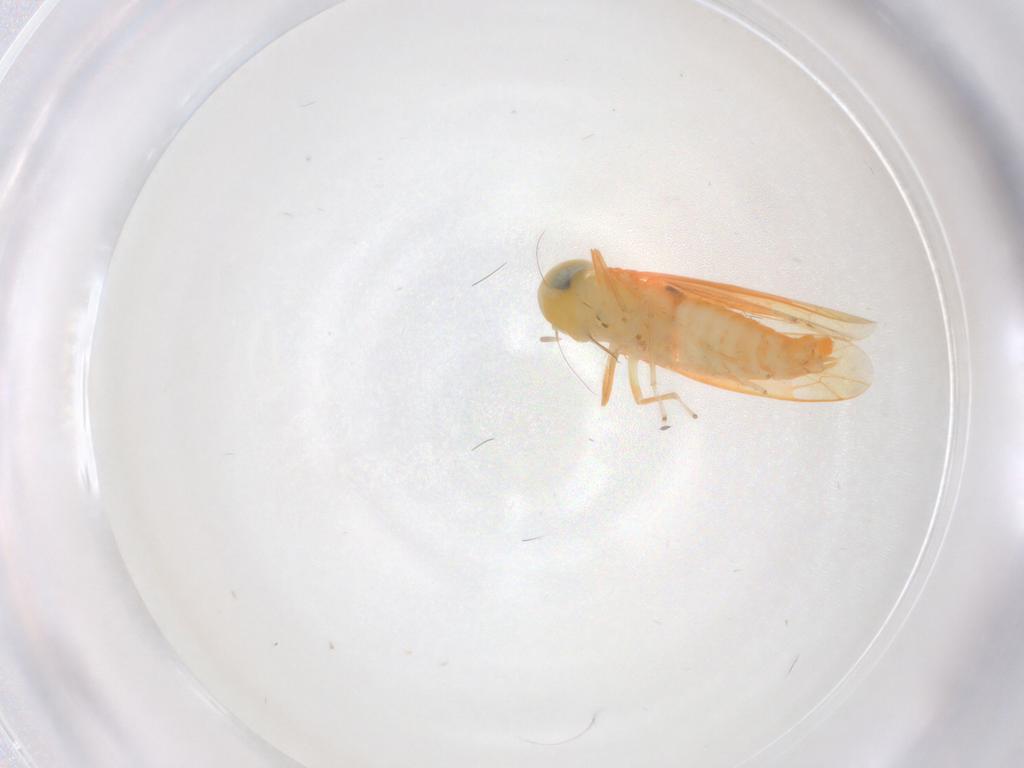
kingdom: Animalia
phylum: Arthropoda
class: Insecta
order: Hemiptera
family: Cicadellidae
